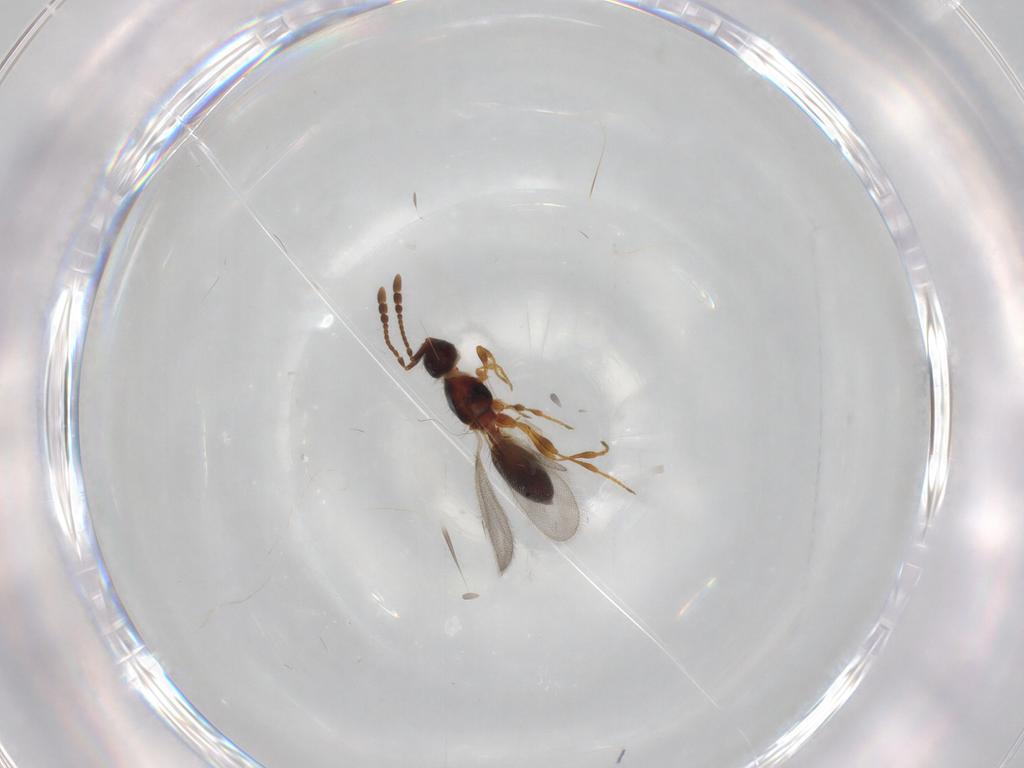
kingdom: Animalia
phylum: Arthropoda
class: Insecta
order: Hymenoptera
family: Diapriidae
